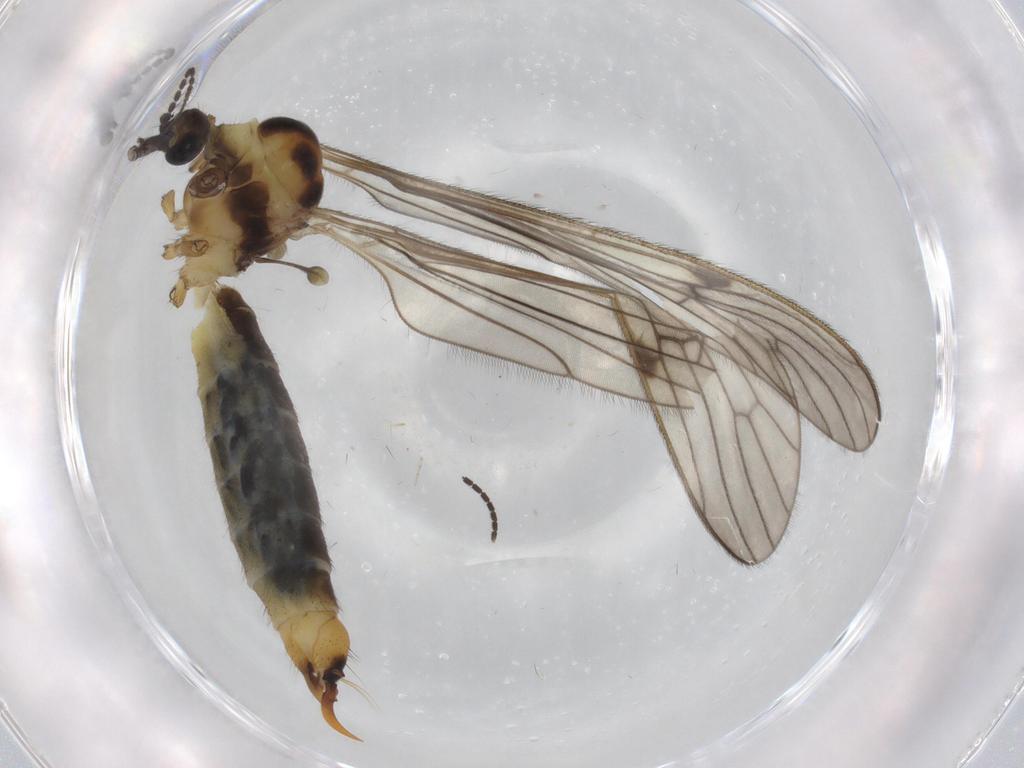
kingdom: Animalia
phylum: Arthropoda
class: Insecta
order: Diptera
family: Limoniidae
